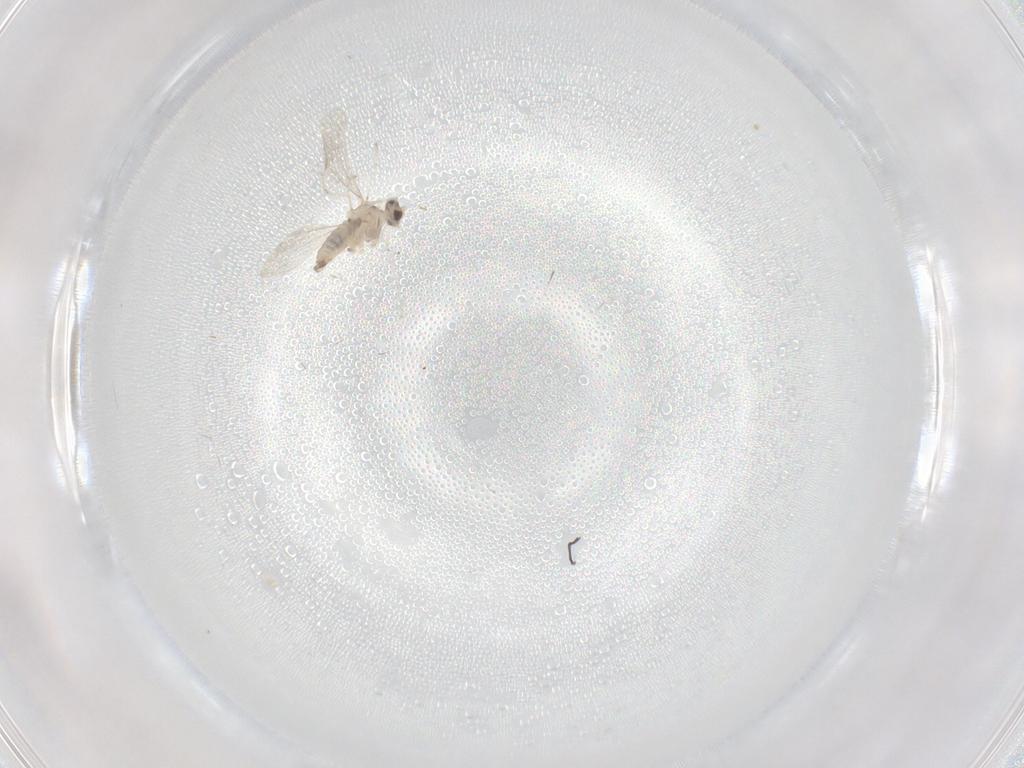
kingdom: Animalia
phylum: Arthropoda
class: Insecta
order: Diptera
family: Cecidomyiidae
